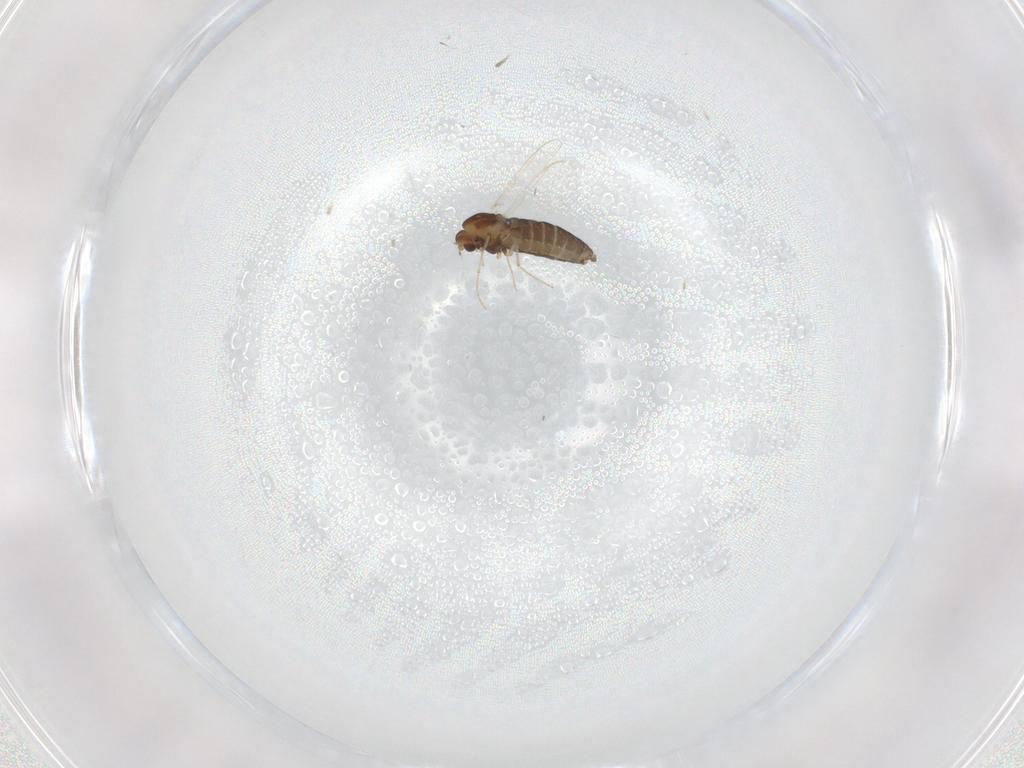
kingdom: Animalia
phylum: Arthropoda
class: Insecta
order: Diptera
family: Chironomidae
